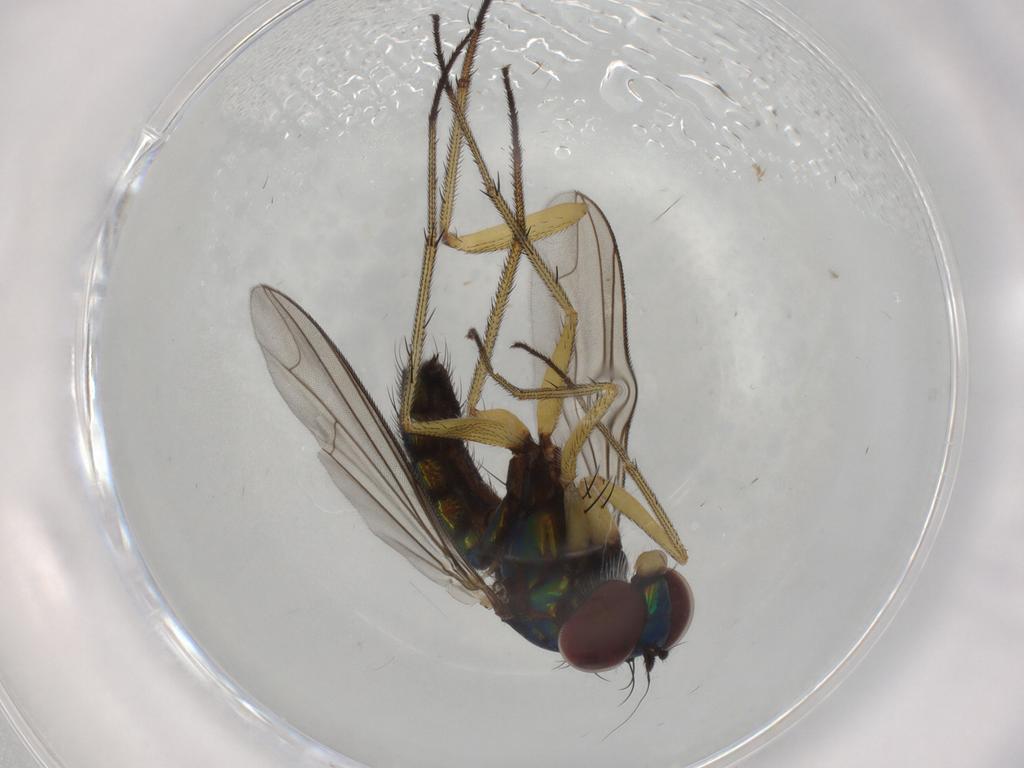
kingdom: Animalia
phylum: Arthropoda
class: Insecta
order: Diptera
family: Dolichopodidae
